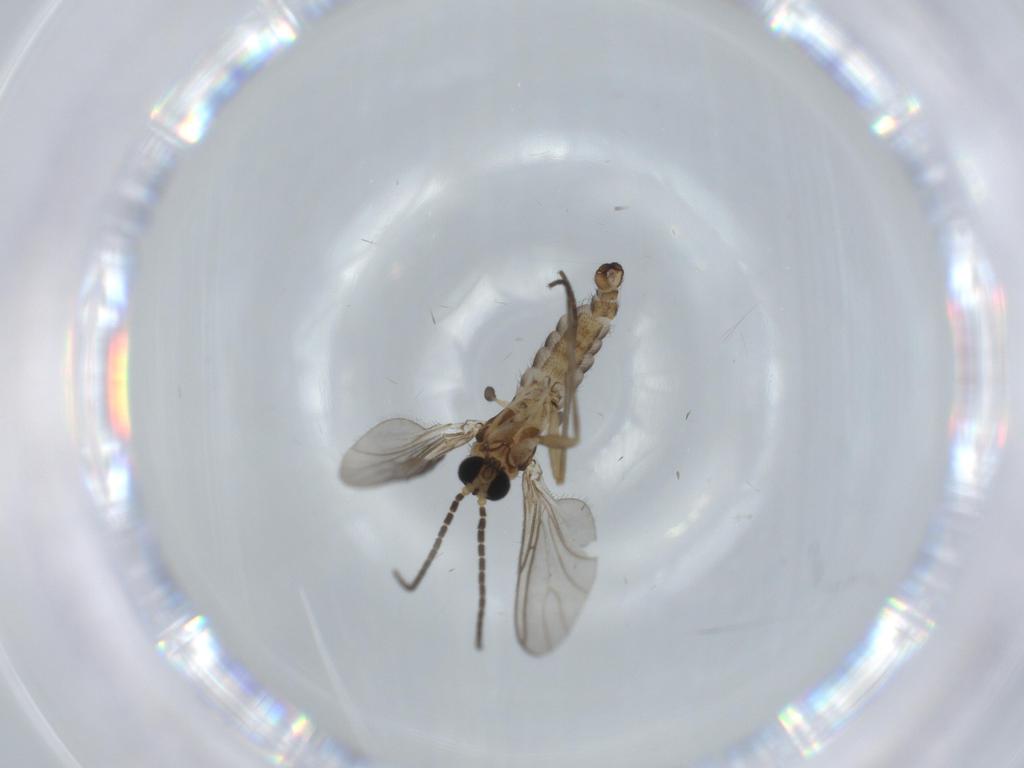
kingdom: Animalia
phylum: Arthropoda
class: Insecta
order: Diptera
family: Sciaridae
